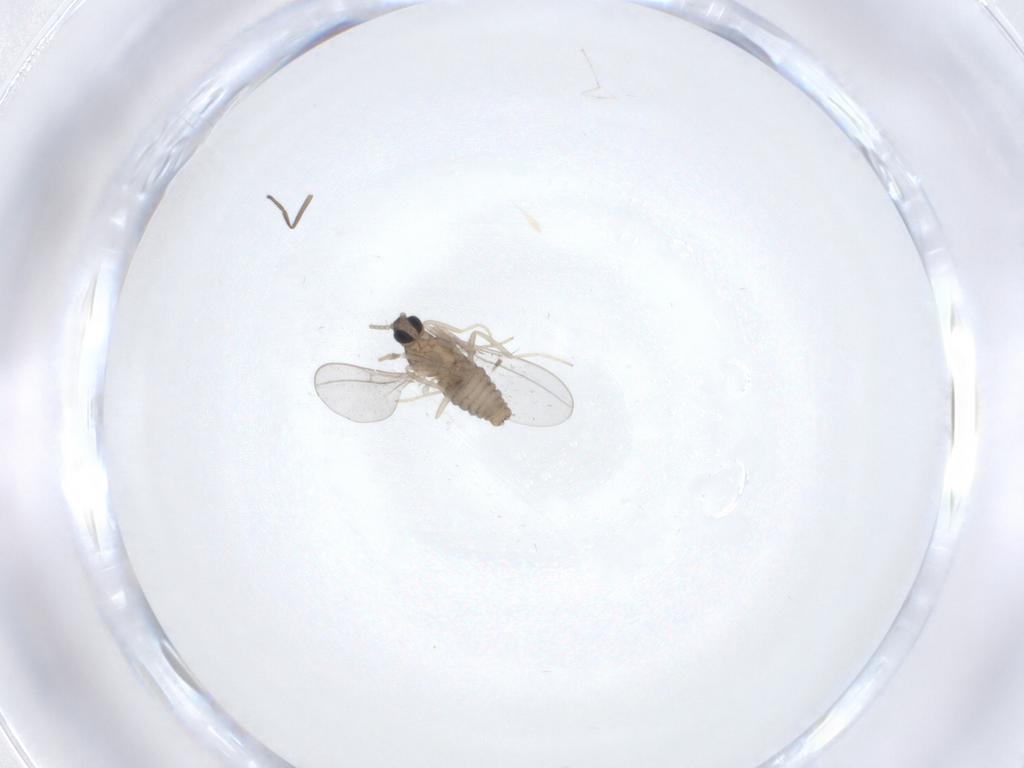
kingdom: Animalia
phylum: Arthropoda
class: Insecta
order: Diptera
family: Cecidomyiidae
